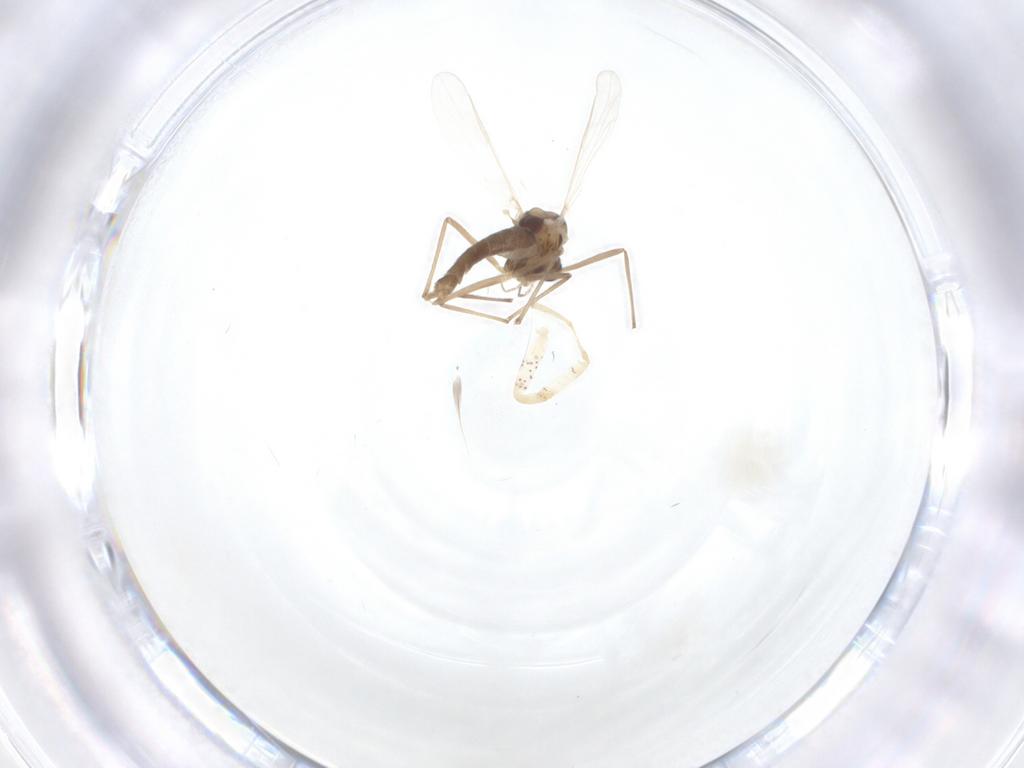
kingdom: Animalia
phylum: Arthropoda
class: Insecta
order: Diptera
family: Chironomidae
